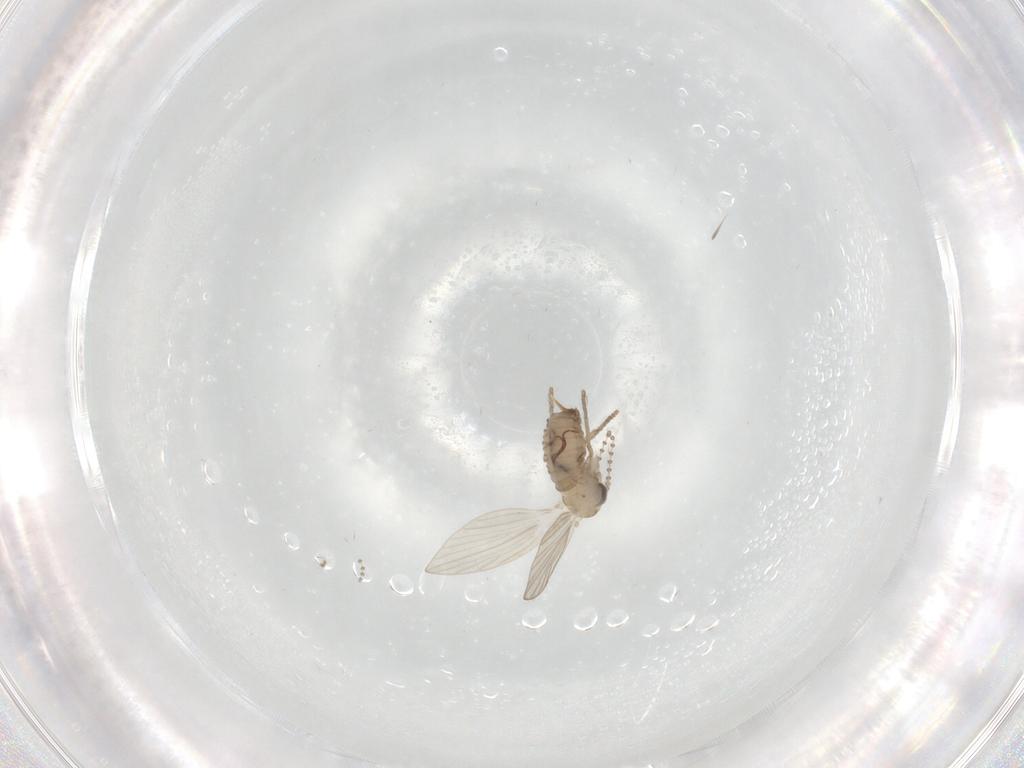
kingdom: Animalia
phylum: Arthropoda
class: Insecta
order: Diptera
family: Psychodidae
